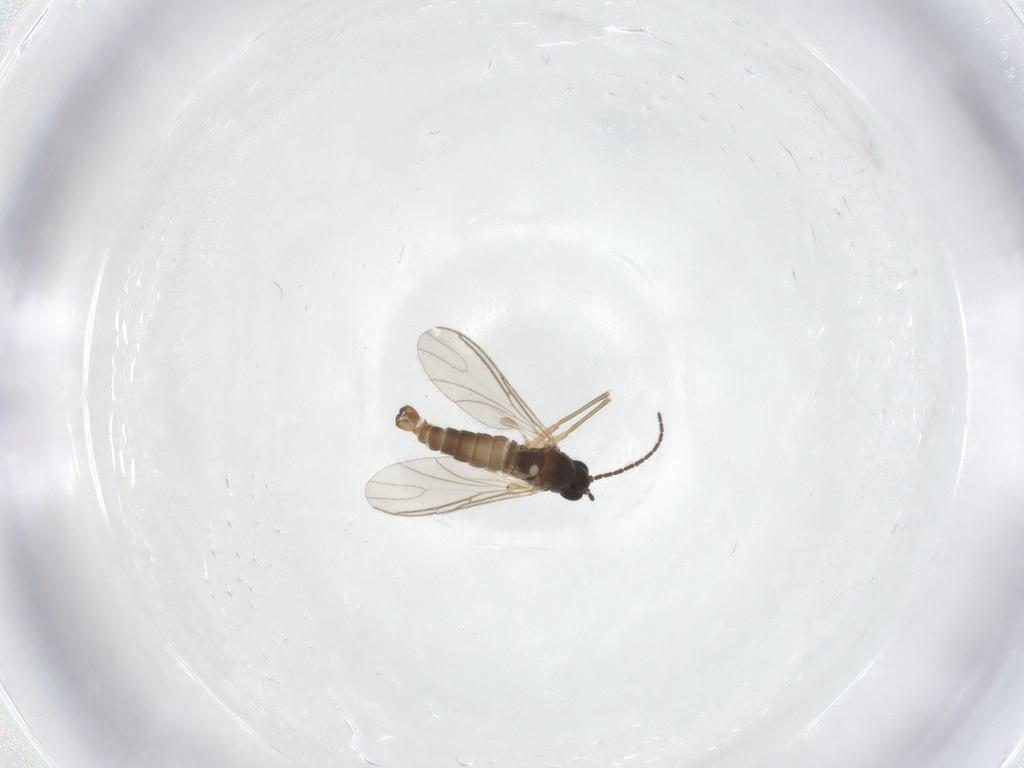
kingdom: Animalia
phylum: Arthropoda
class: Insecta
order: Diptera
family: Sciaridae
